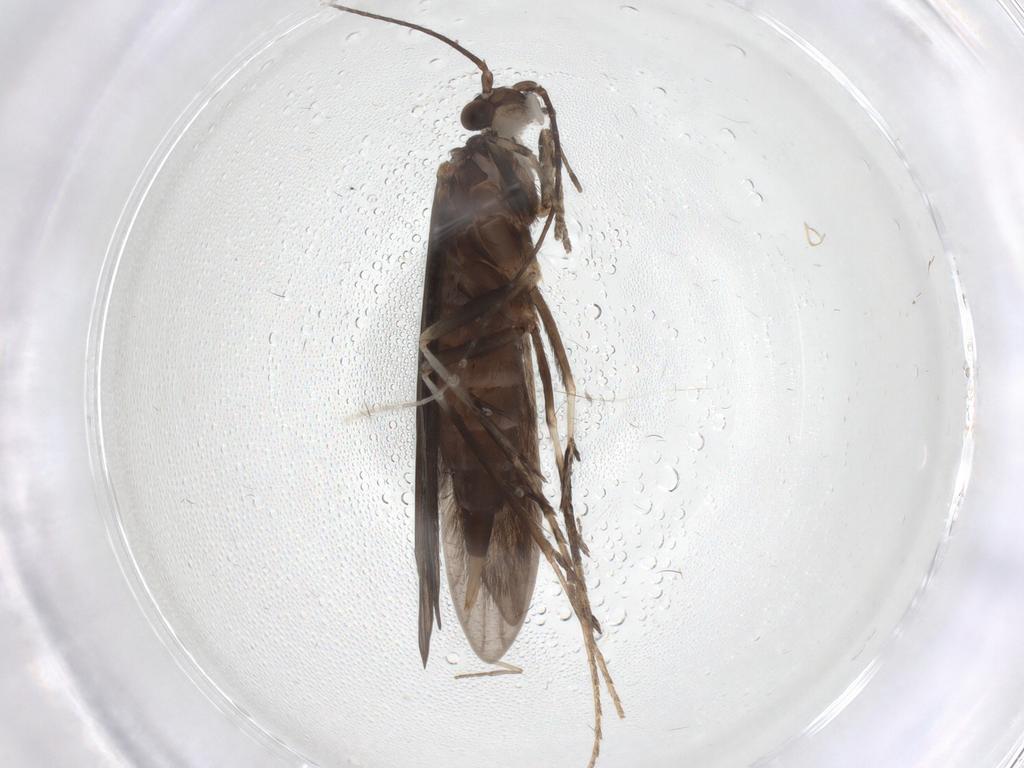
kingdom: Animalia
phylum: Arthropoda
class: Insecta
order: Trichoptera
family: Xiphocentronidae
